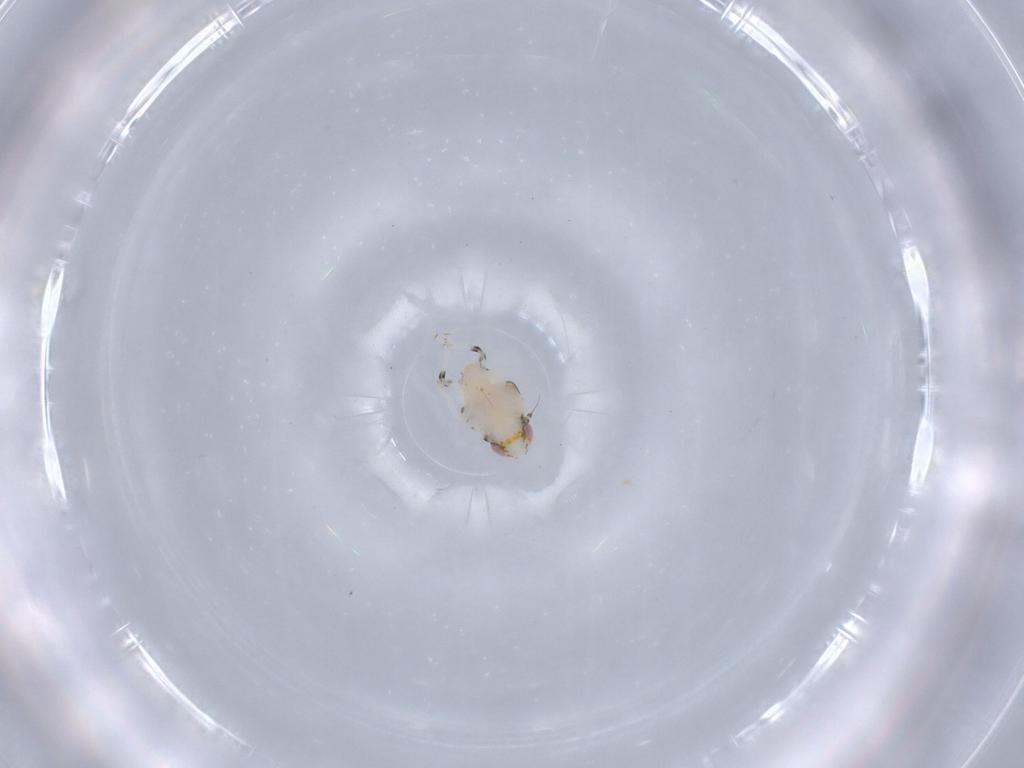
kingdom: Animalia
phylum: Arthropoda
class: Insecta
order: Hemiptera
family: Nogodinidae
